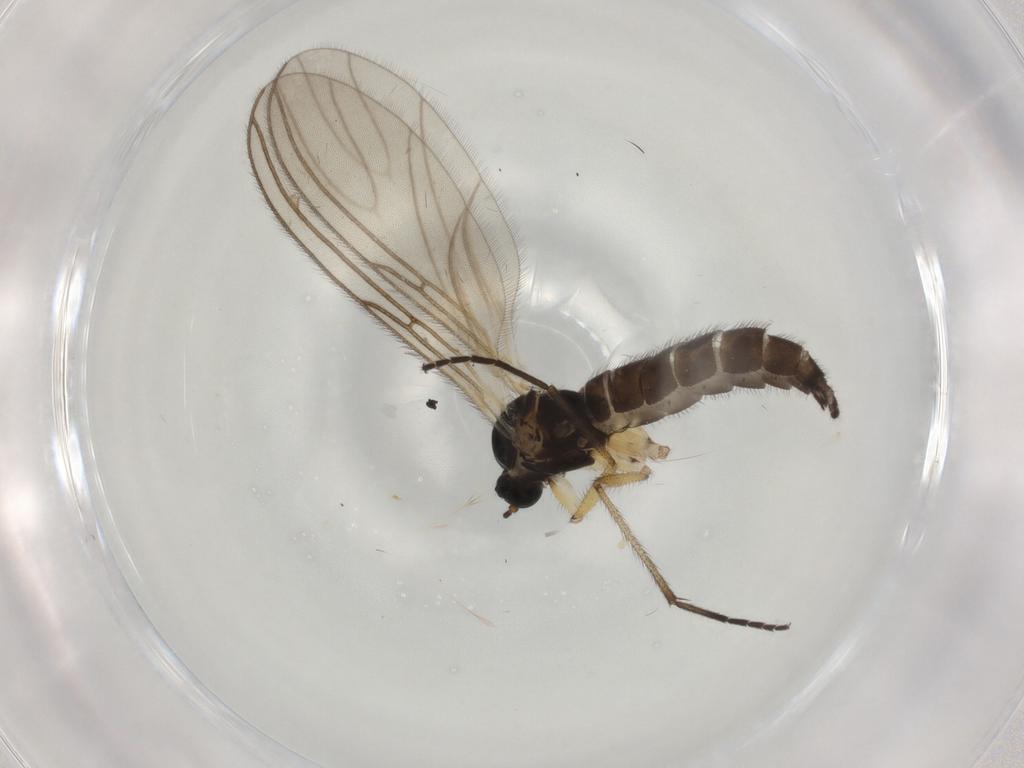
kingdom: Animalia
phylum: Arthropoda
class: Insecta
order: Diptera
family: Sciaridae
